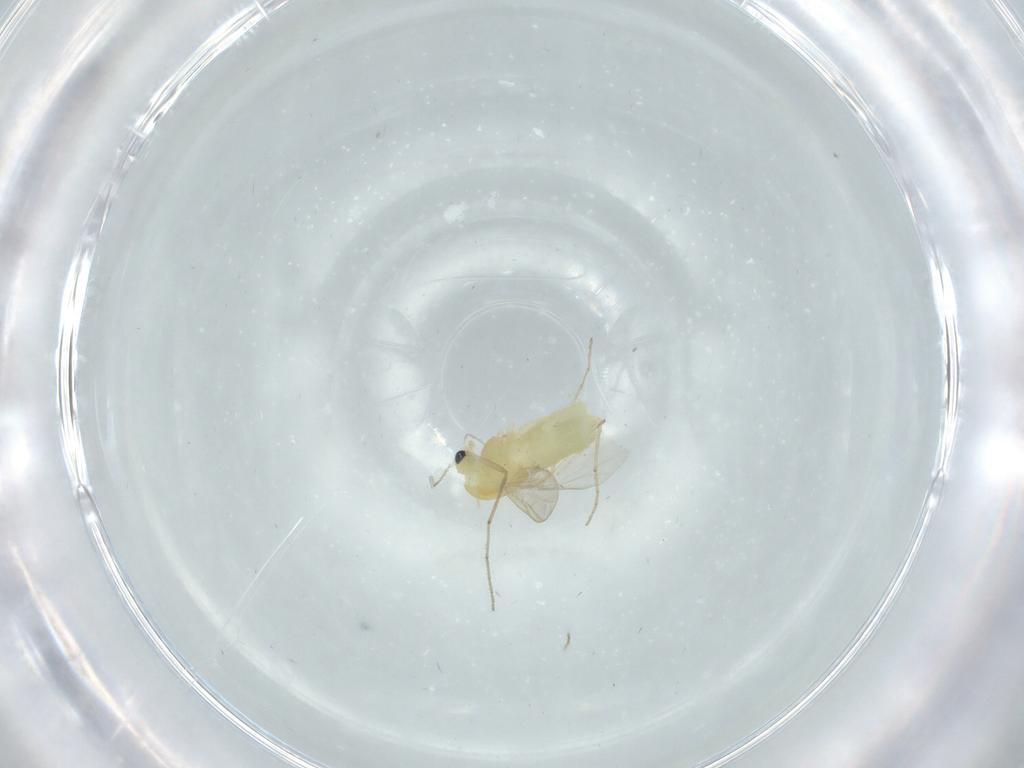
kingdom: Animalia
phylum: Arthropoda
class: Insecta
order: Diptera
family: Chironomidae
